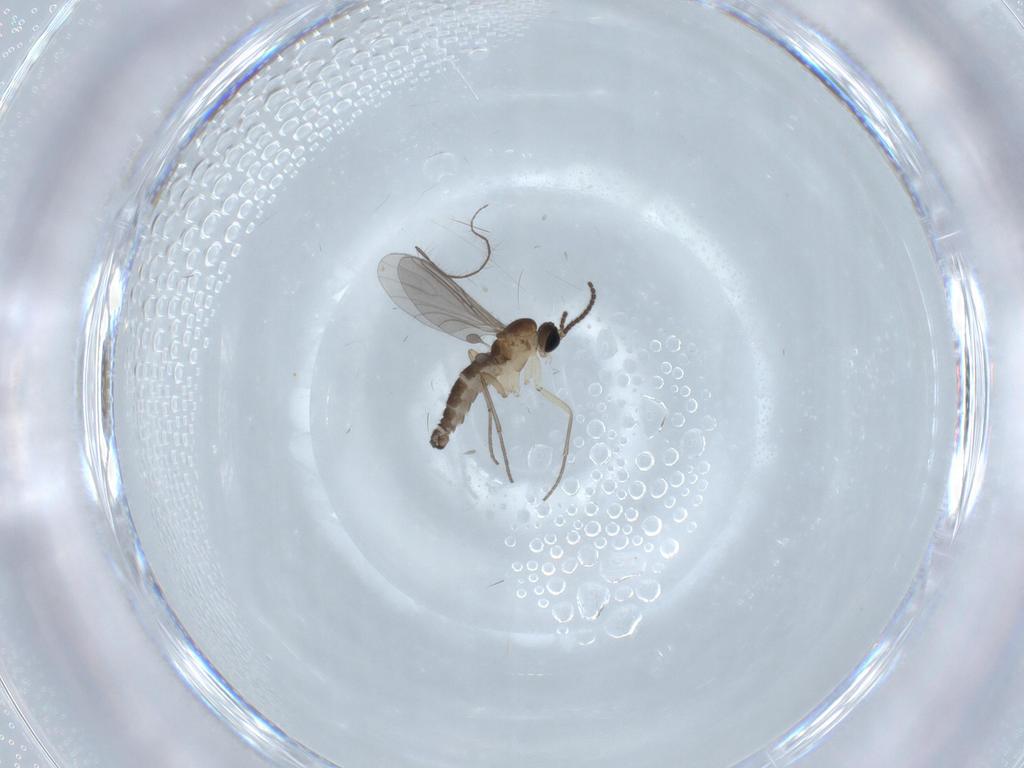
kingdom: Animalia
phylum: Arthropoda
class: Insecta
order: Diptera
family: Sciaridae
